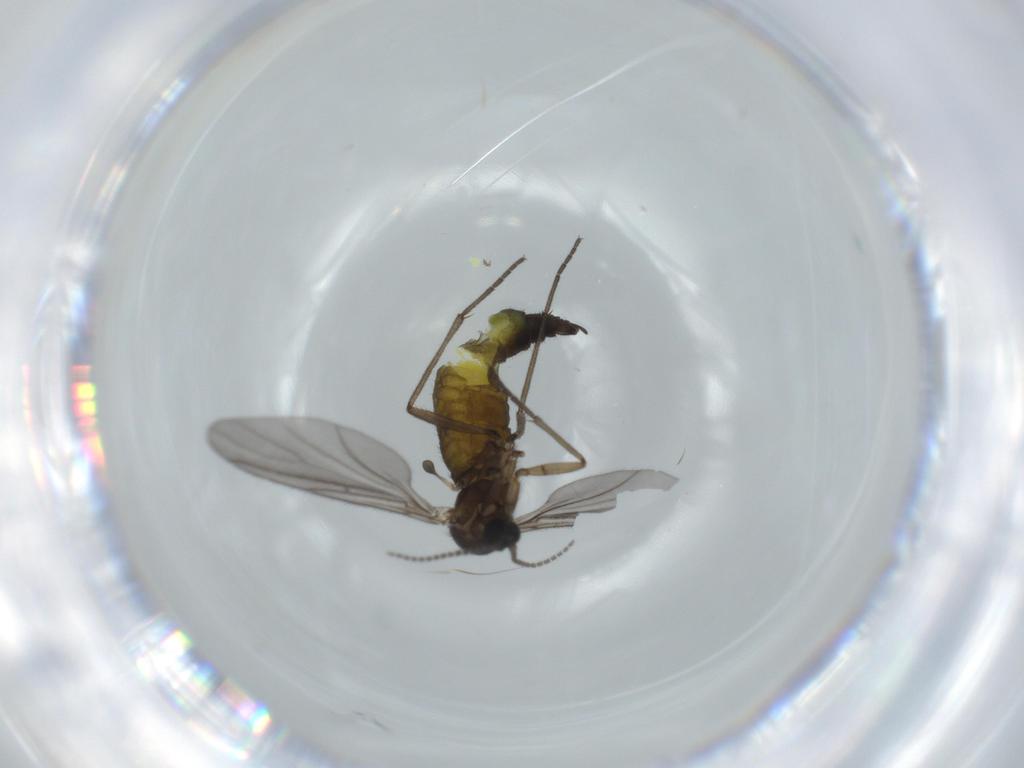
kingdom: Animalia
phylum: Arthropoda
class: Insecta
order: Diptera
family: Sciaridae
